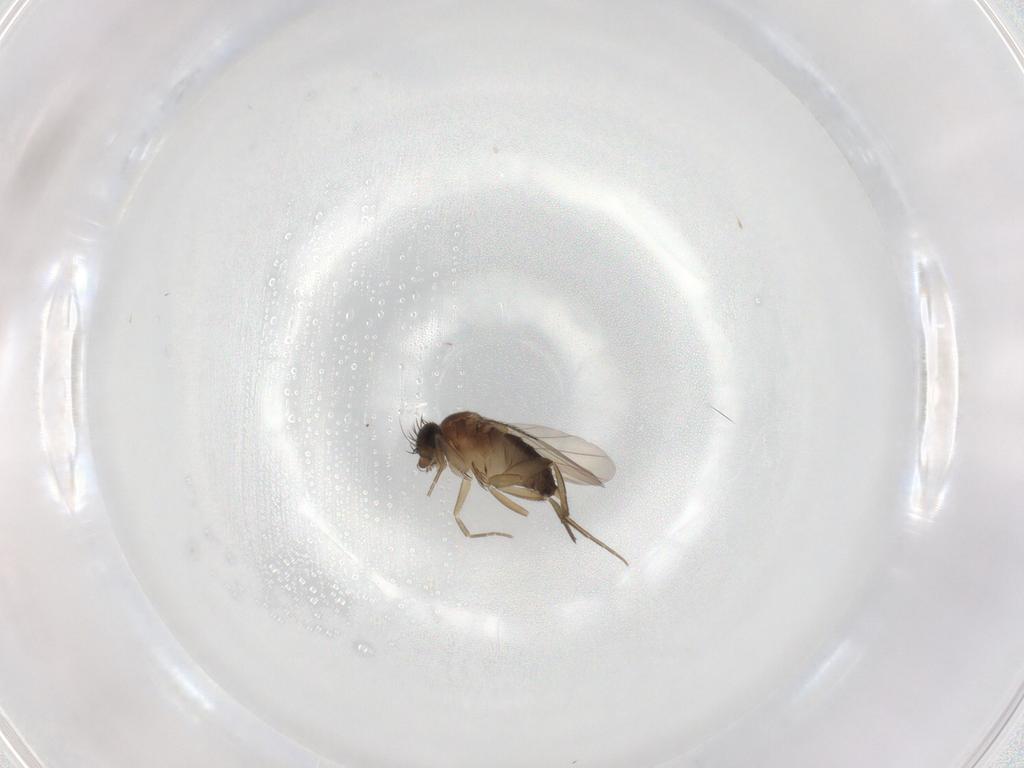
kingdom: Animalia
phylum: Arthropoda
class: Insecta
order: Diptera
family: Phoridae
